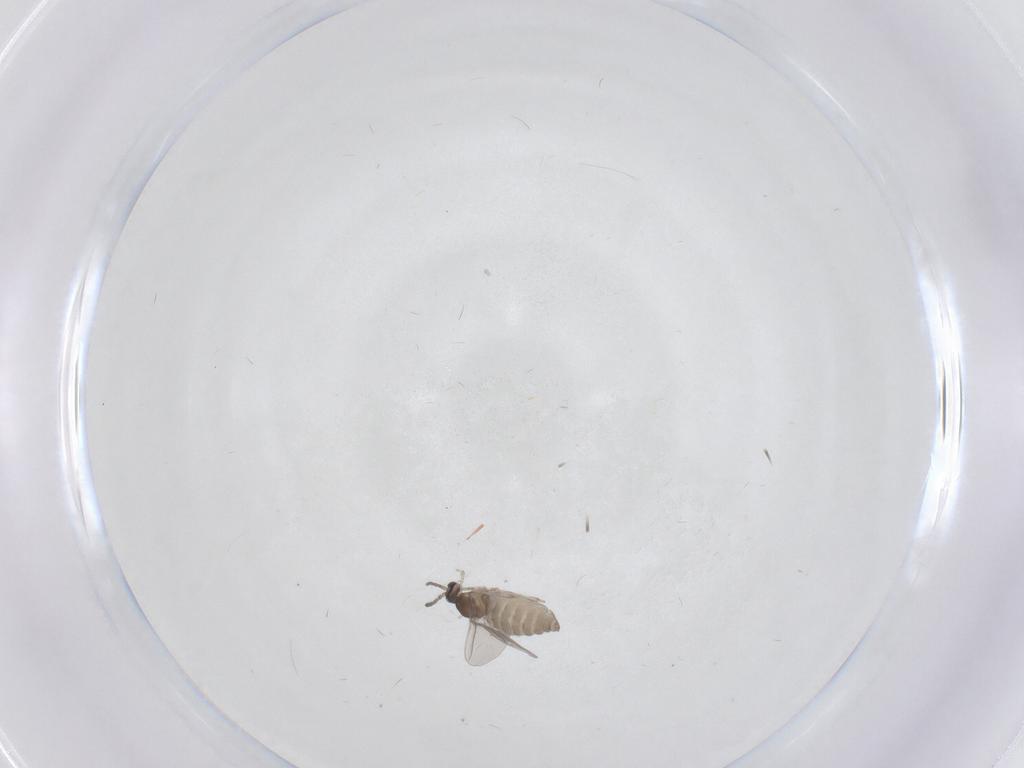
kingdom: Animalia
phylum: Arthropoda
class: Insecta
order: Diptera
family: Cecidomyiidae
